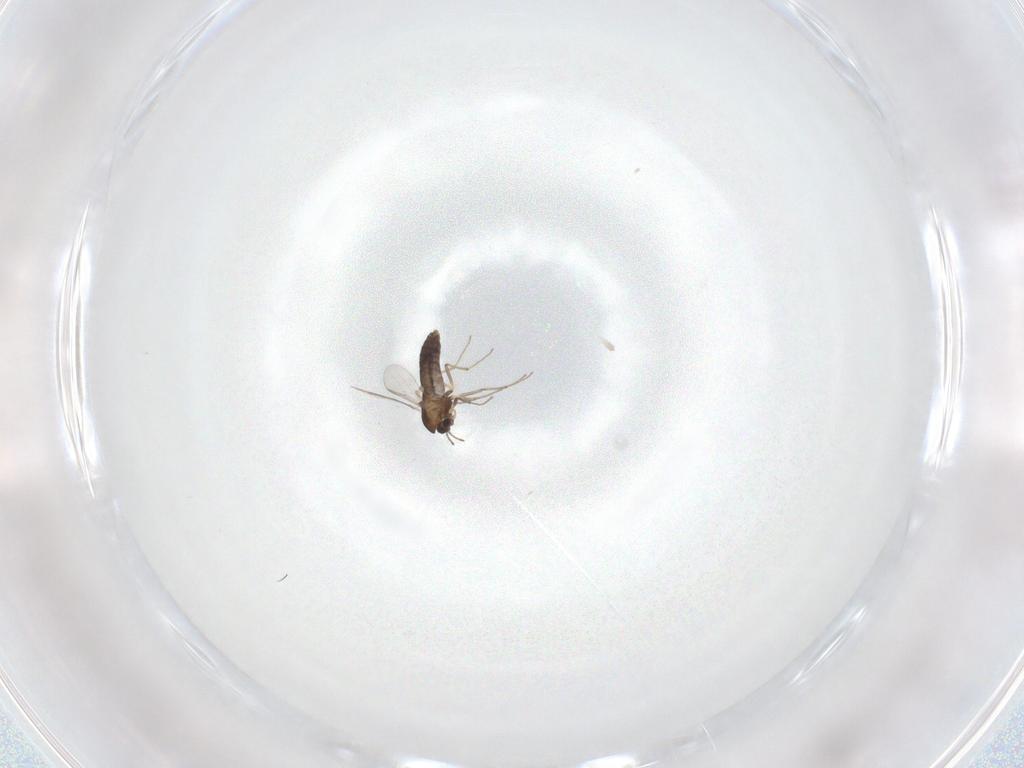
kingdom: Animalia
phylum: Arthropoda
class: Insecta
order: Diptera
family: Chironomidae
